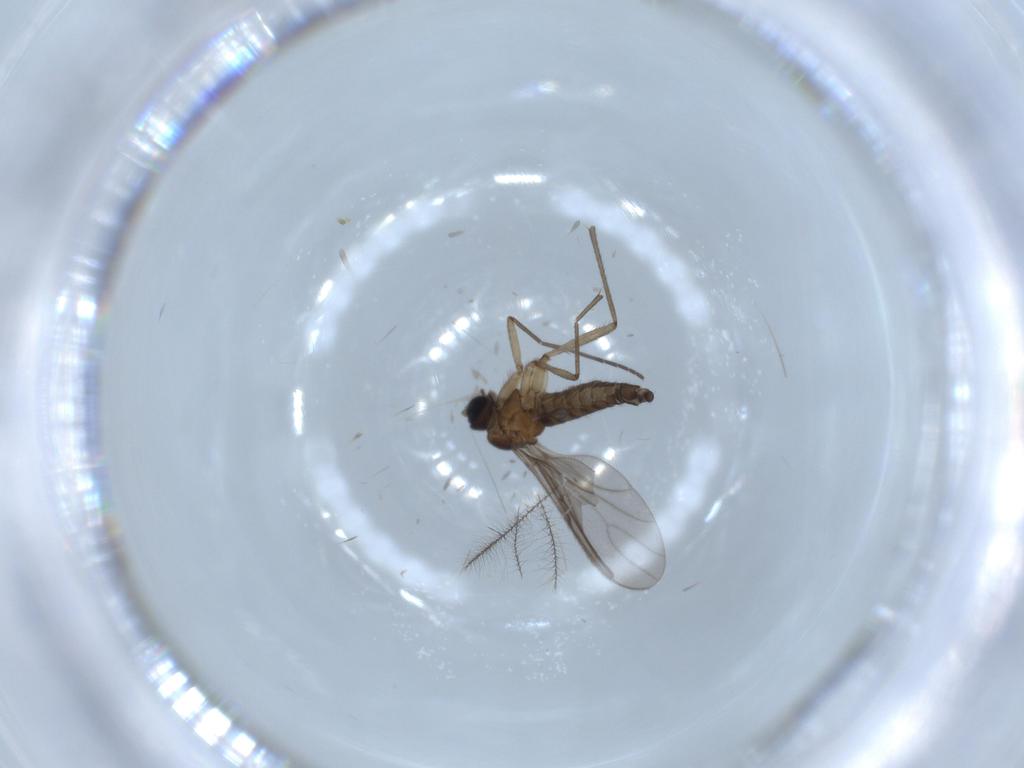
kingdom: Animalia
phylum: Arthropoda
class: Insecta
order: Diptera
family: Sciaridae
